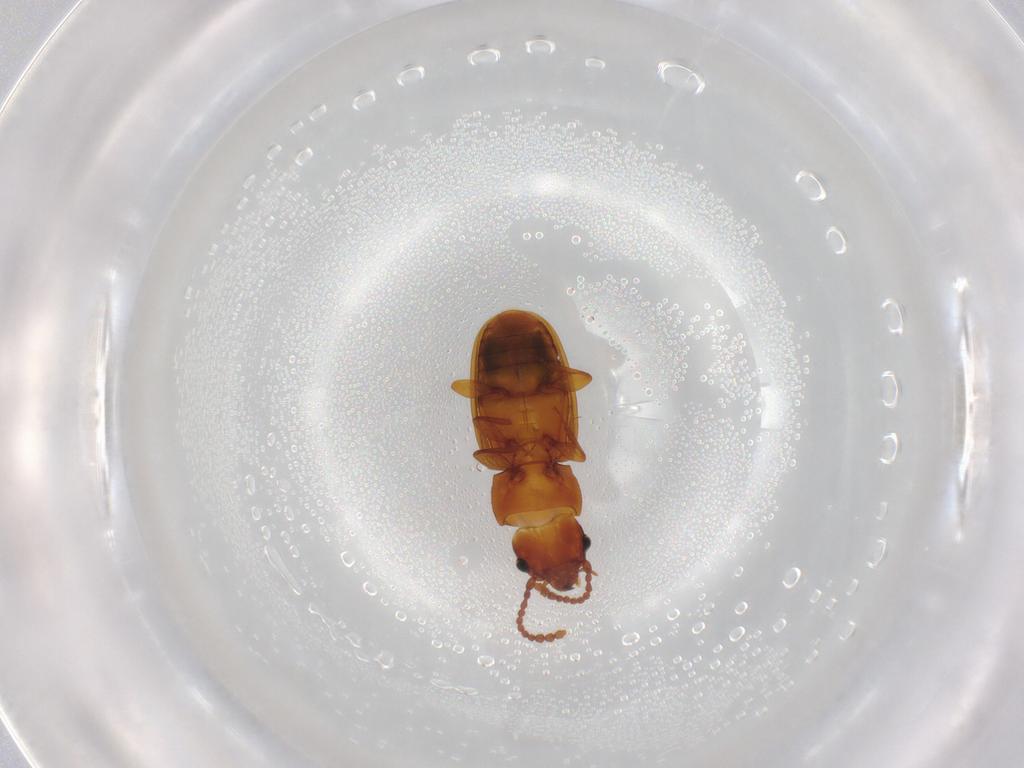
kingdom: Animalia
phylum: Arthropoda
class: Insecta
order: Coleoptera
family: Laemophloeidae
